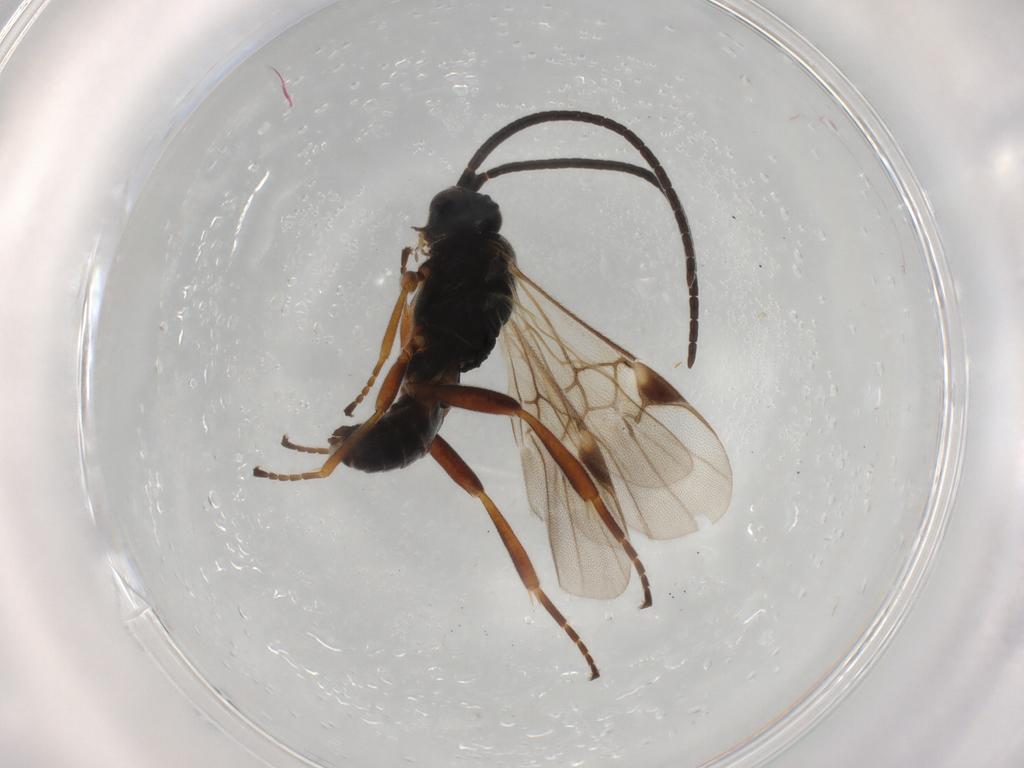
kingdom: Animalia
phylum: Arthropoda
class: Insecta
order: Hymenoptera
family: Braconidae
